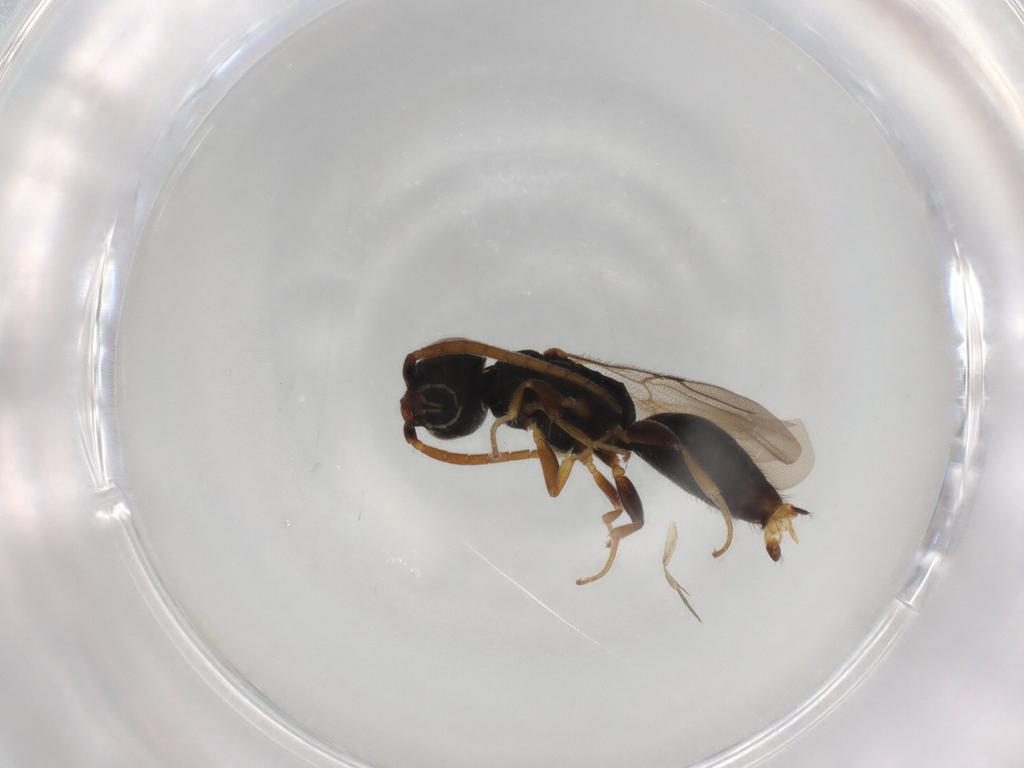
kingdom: Animalia
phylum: Arthropoda
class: Insecta
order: Hymenoptera
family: Bethylidae
